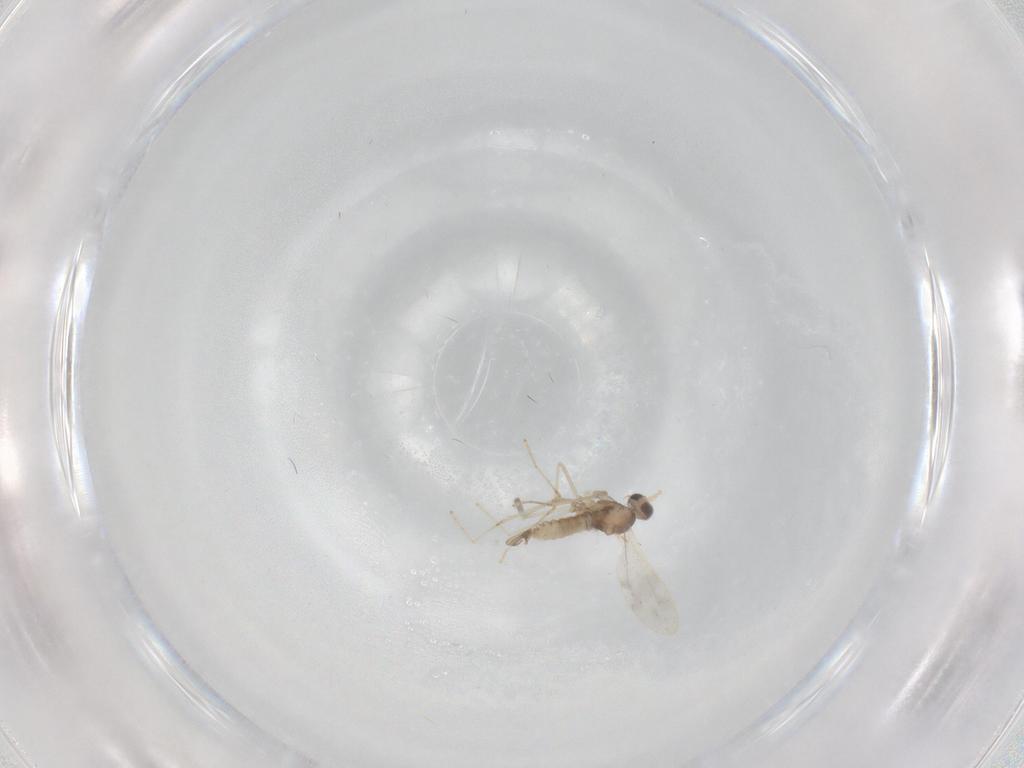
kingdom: Animalia
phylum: Arthropoda
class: Insecta
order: Diptera
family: Cecidomyiidae
